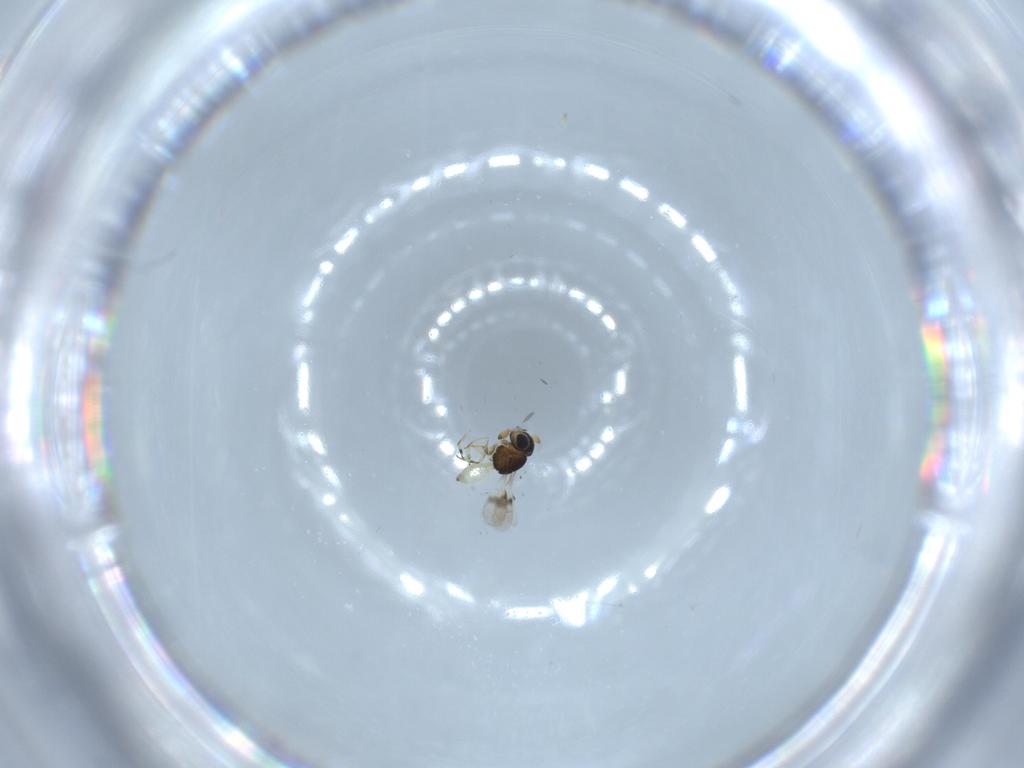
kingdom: Animalia
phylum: Arthropoda
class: Insecta
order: Hymenoptera
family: Scelionidae
